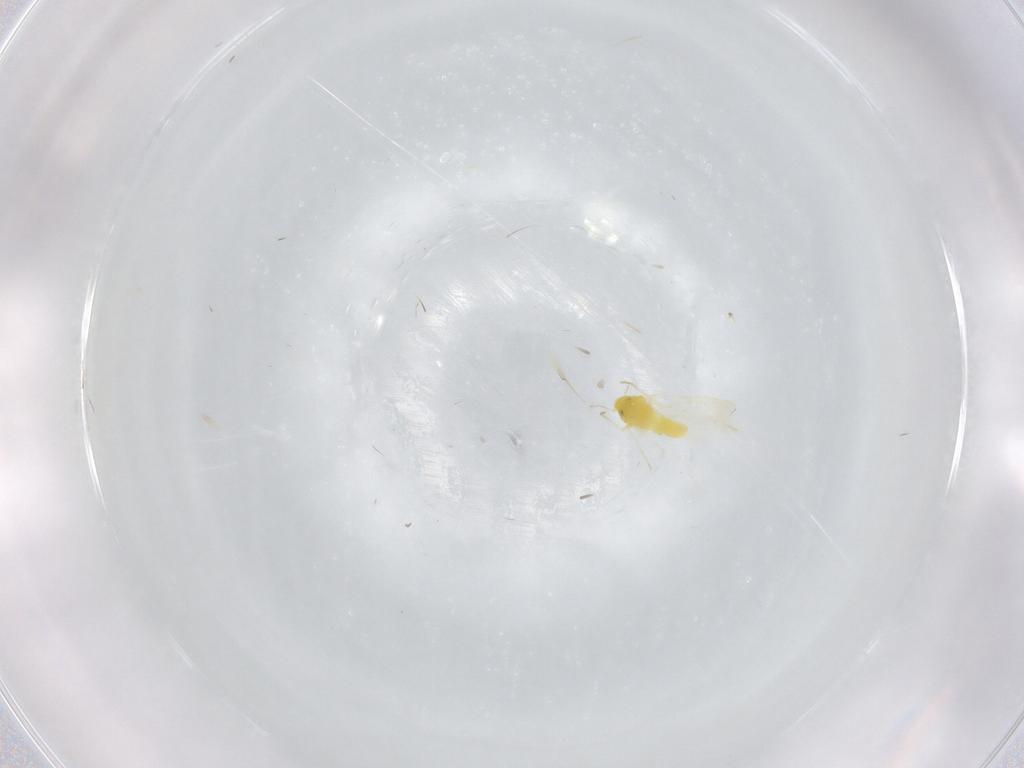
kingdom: Animalia
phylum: Arthropoda
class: Insecta
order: Hemiptera
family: Aleyrodidae
